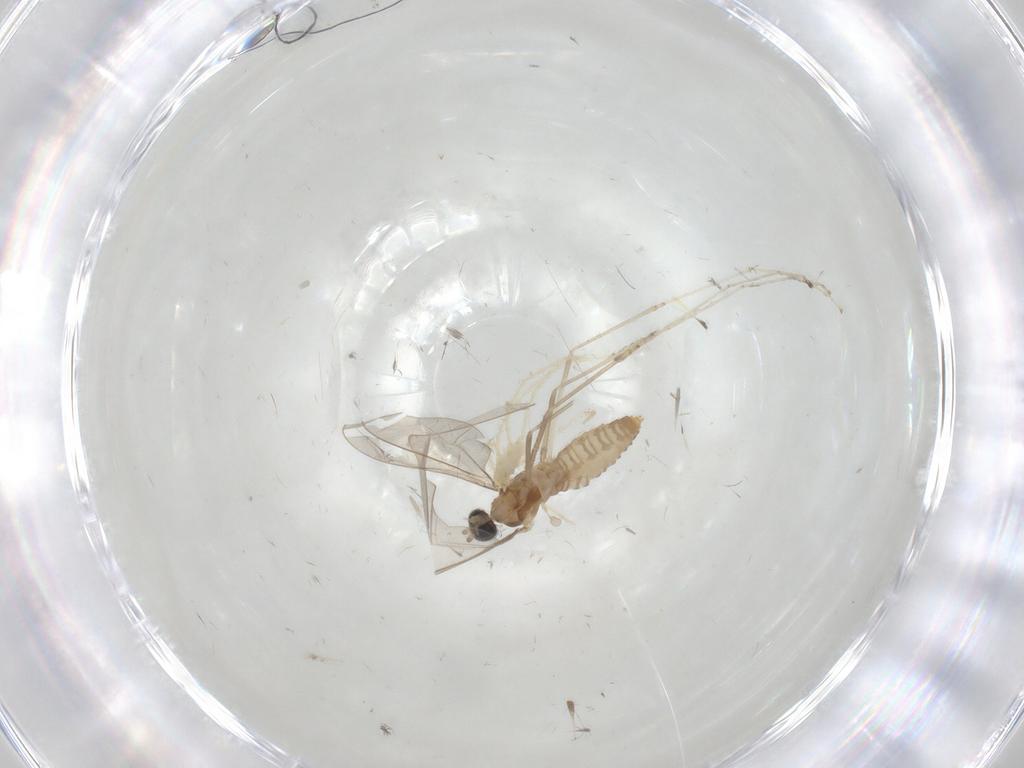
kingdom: Animalia
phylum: Arthropoda
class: Insecta
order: Diptera
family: Cecidomyiidae
